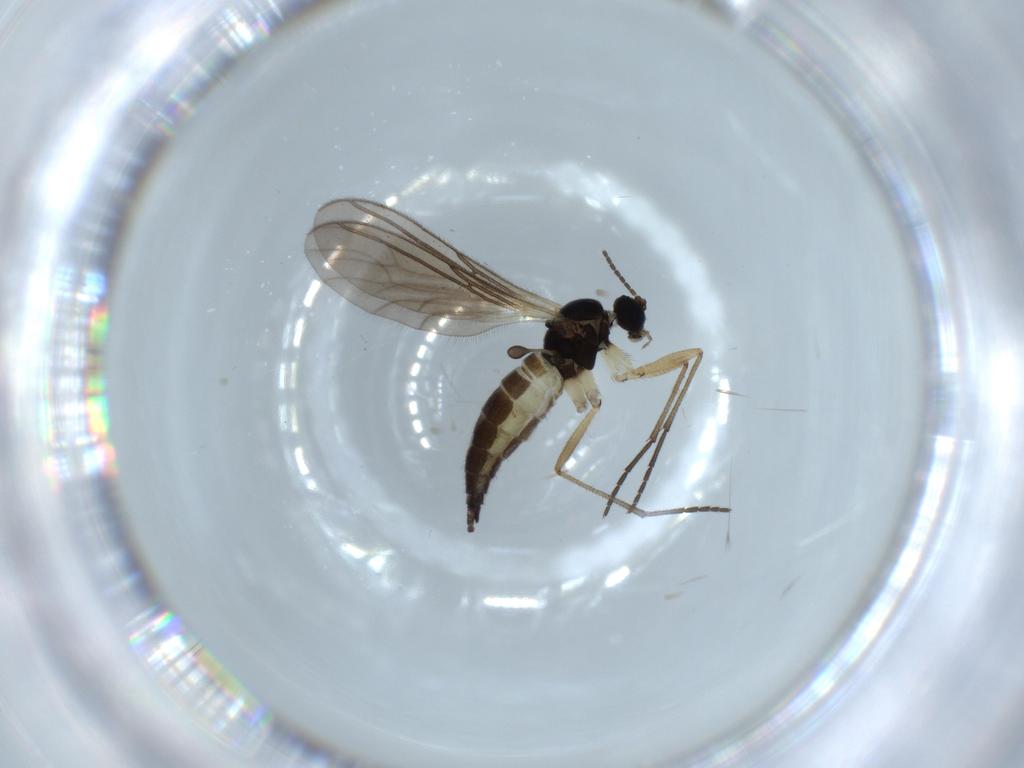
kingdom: Animalia
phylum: Arthropoda
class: Insecta
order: Diptera
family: Sciaridae
